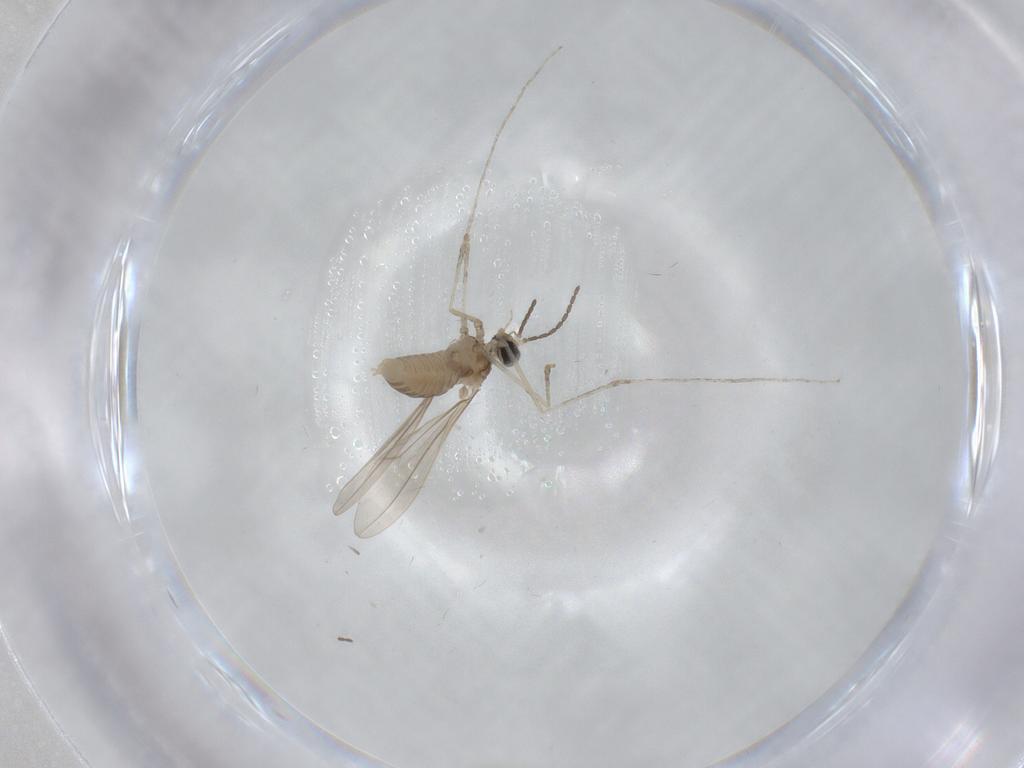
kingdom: Animalia
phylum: Arthropoda
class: Insecta
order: Diptera
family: Cecidomyiidae
